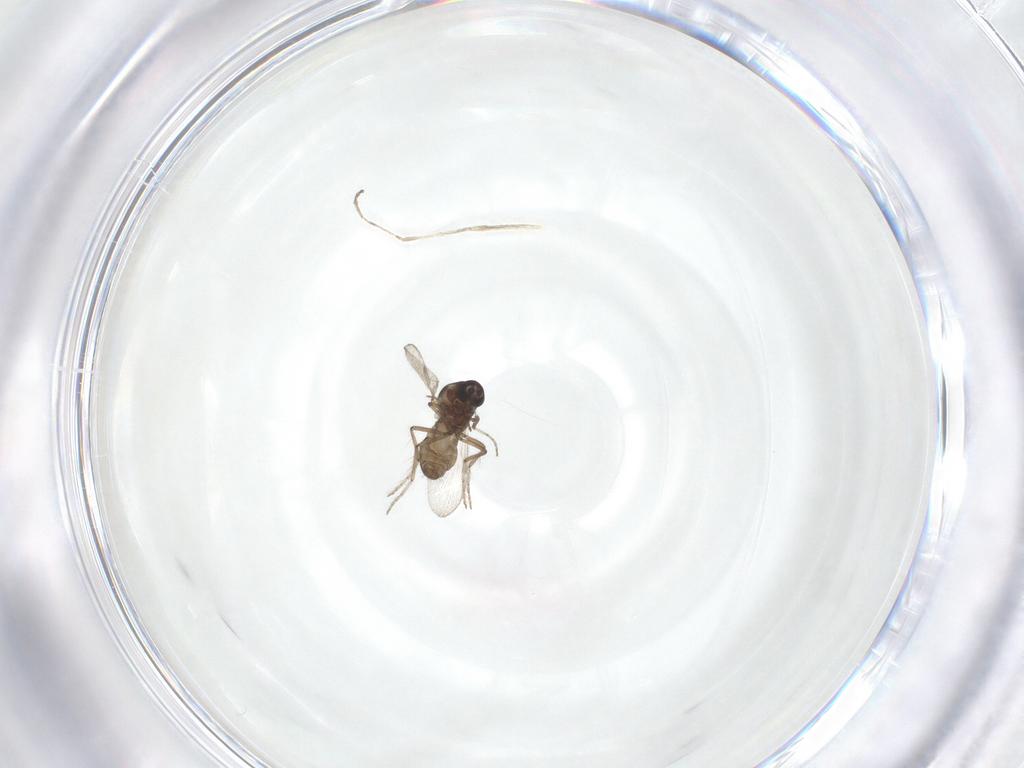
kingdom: Animalia
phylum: Arthropoda
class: Insecta
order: Diptera
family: Ceratopogonidae
